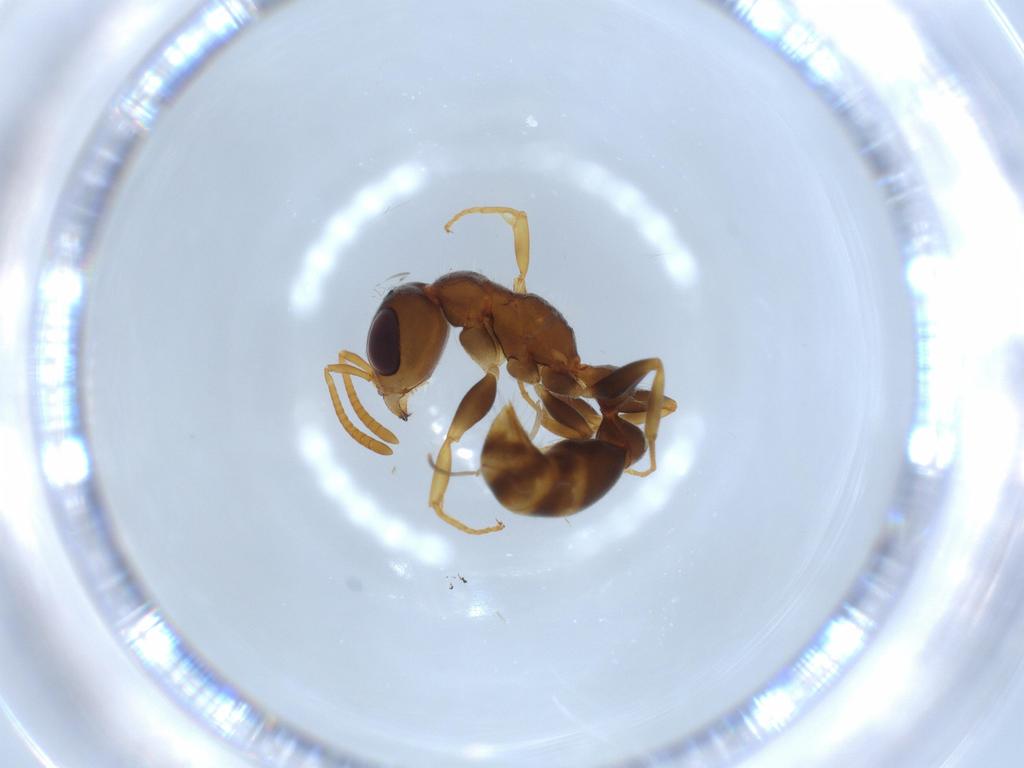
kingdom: Animalia
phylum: Arthropoda
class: Insecta
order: Hymenoptera
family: Formicidae
